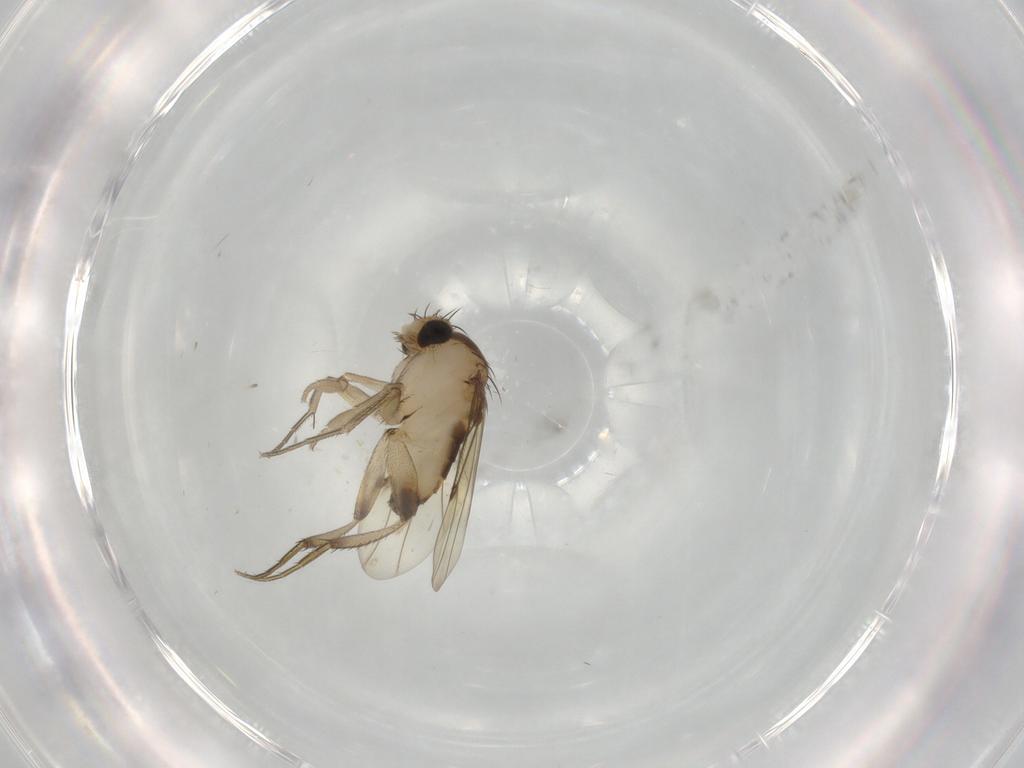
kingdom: Animalia
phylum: Arthropoda
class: Insecta
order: Diptera
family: Phoridae
